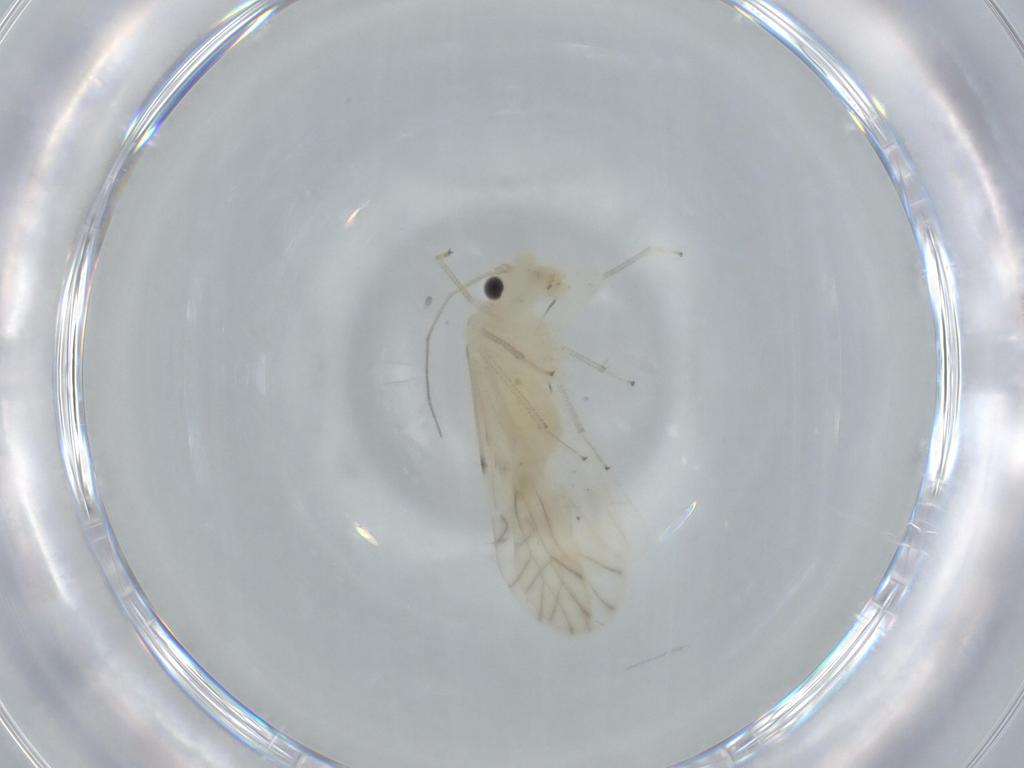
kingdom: Animalia
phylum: Arthropoda
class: Insecta
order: Psocodea
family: Caeciliusidae
